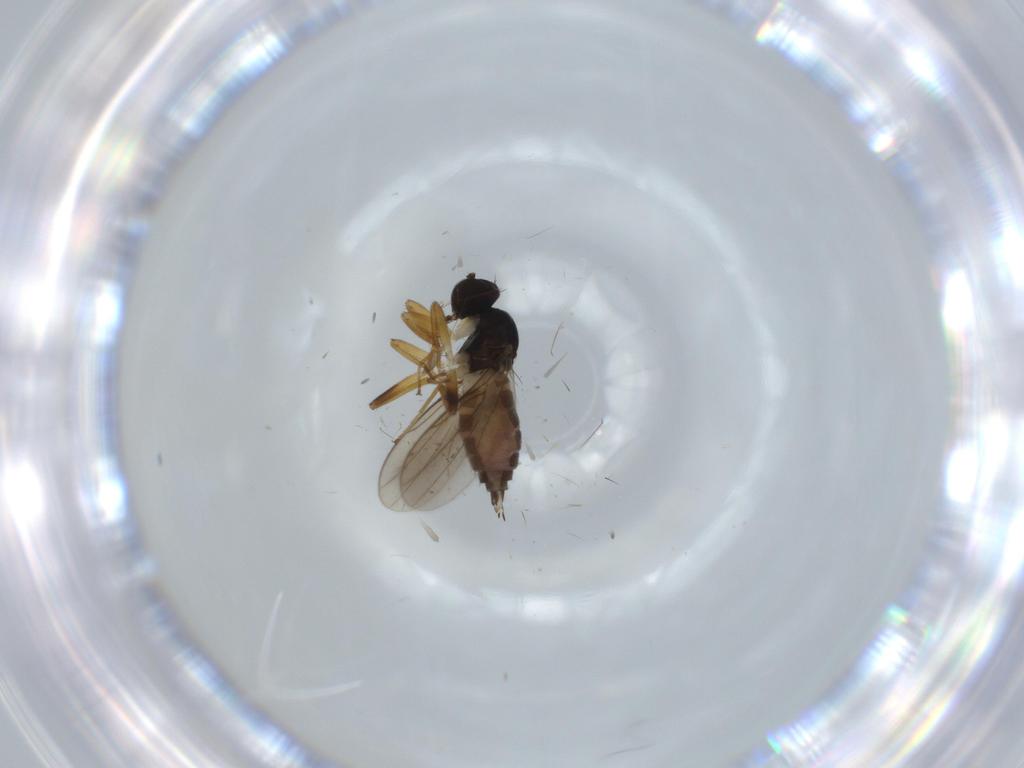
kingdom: Animalia
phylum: Arthropoda
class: Insecta
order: Diptera
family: Hybotidae
